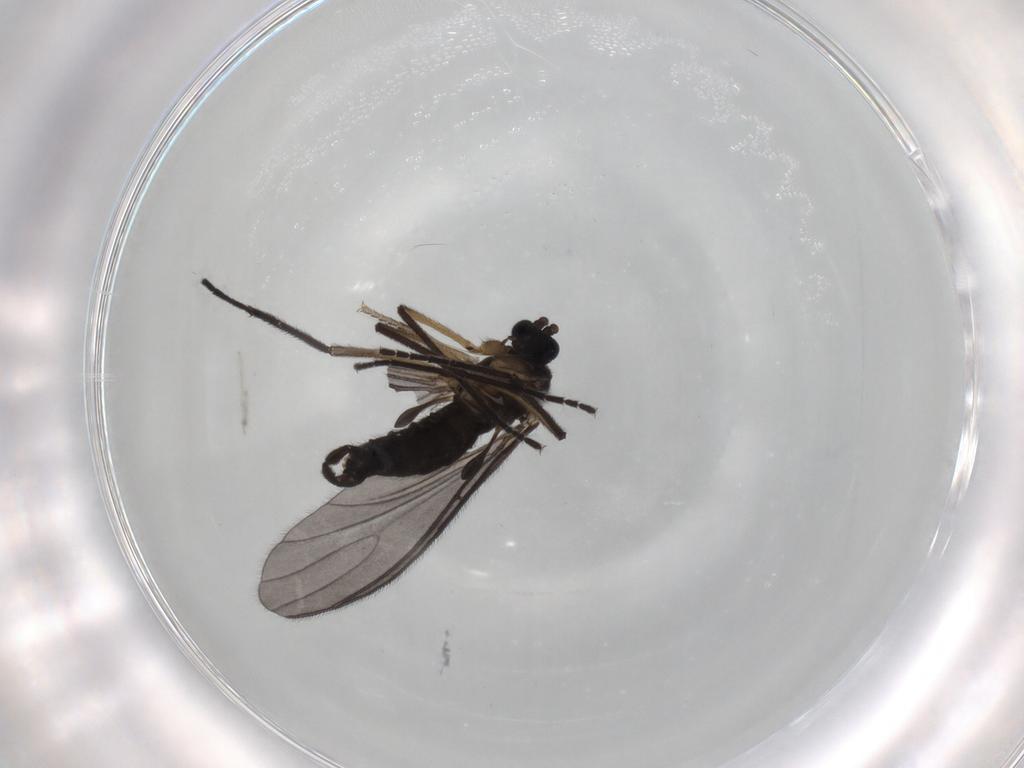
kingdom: Animalia
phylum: Arthropoda
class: Insecta
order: Diptera
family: Sciaridae
